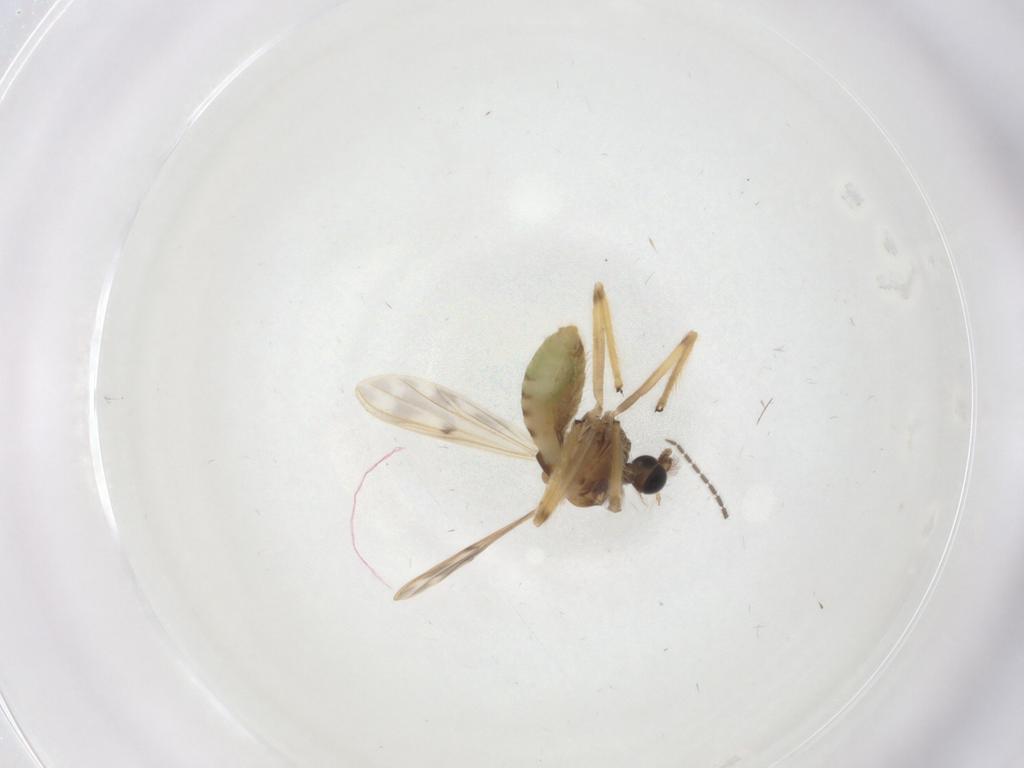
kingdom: Animalia
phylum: Arthropoda
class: Insecta
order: Diptera
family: Chironomidae
